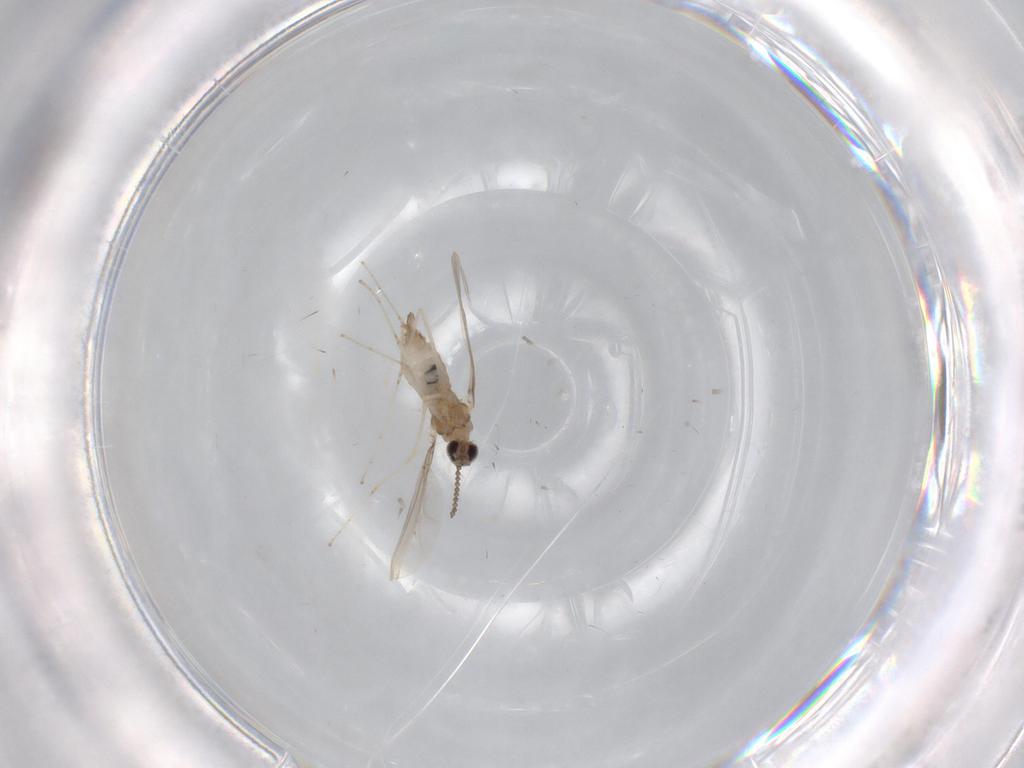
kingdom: Animalia
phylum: Arthropoda
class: Insecta
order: Diptera
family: Cecidomyiidae
